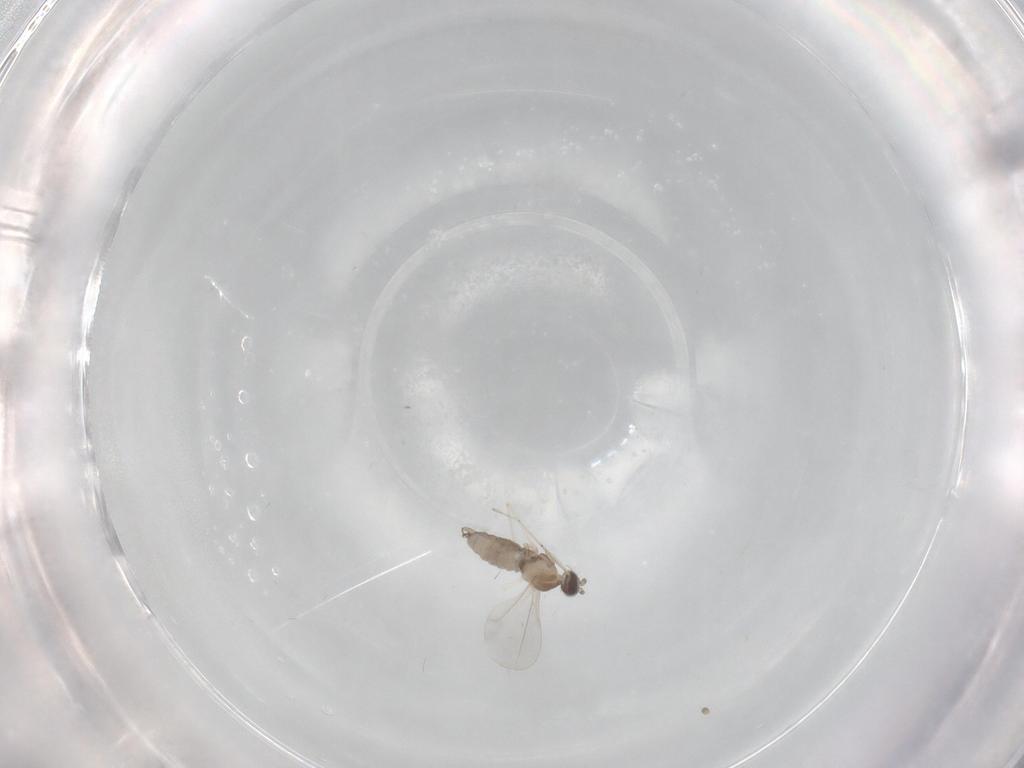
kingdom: Animalia
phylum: Arthropoda
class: Insecta
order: Diptera
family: Cecidomyiidae
